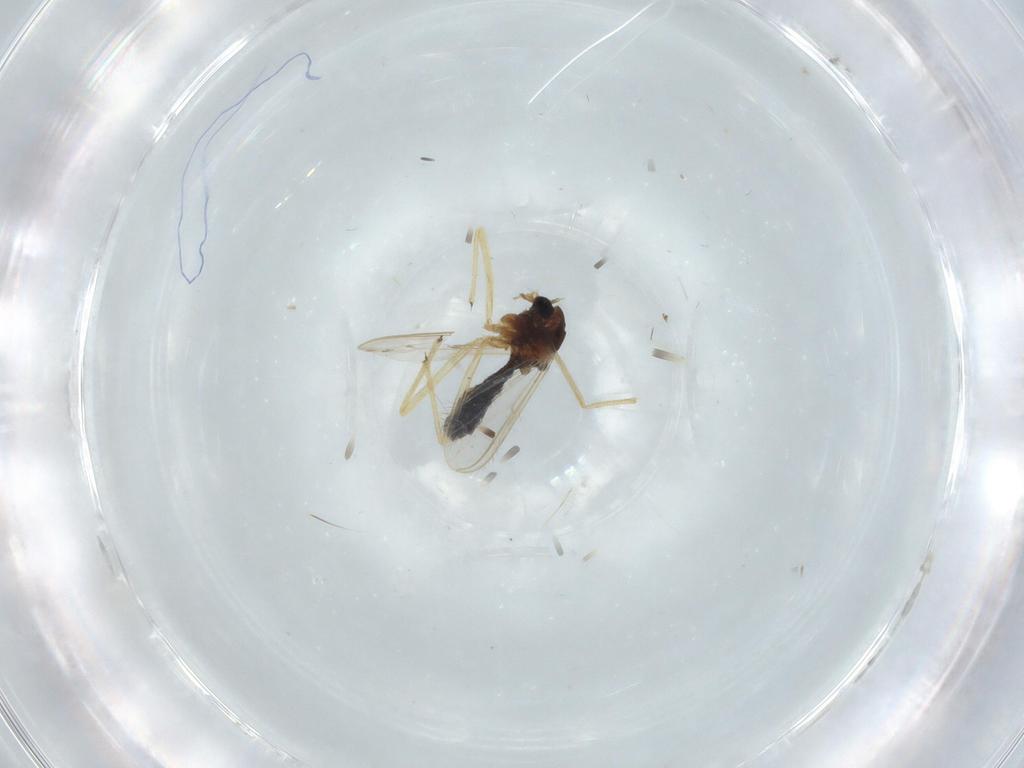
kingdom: Animalia
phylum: Arthropoda
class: Insecta
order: Diptera
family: Chironomidae
